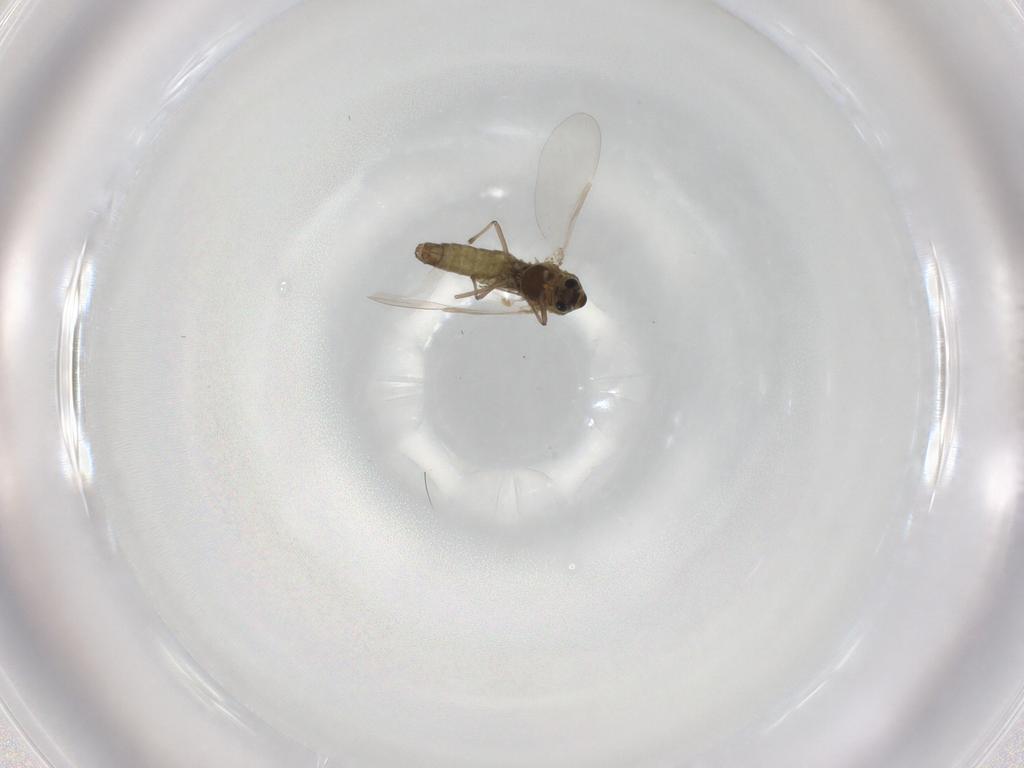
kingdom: Animalia
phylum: Arthropoda
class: Insecta
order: Diptera
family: Chironomidae
